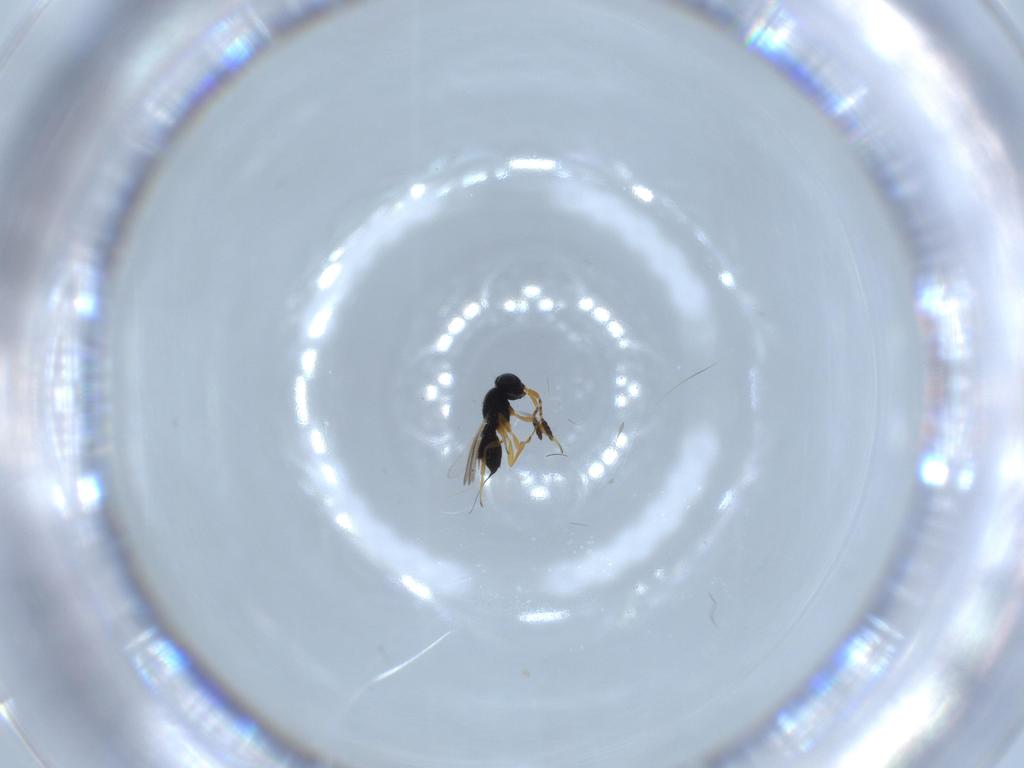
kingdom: Animalia
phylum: Arthropoda
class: Insecta
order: Hymenoptera
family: Scelionidae
